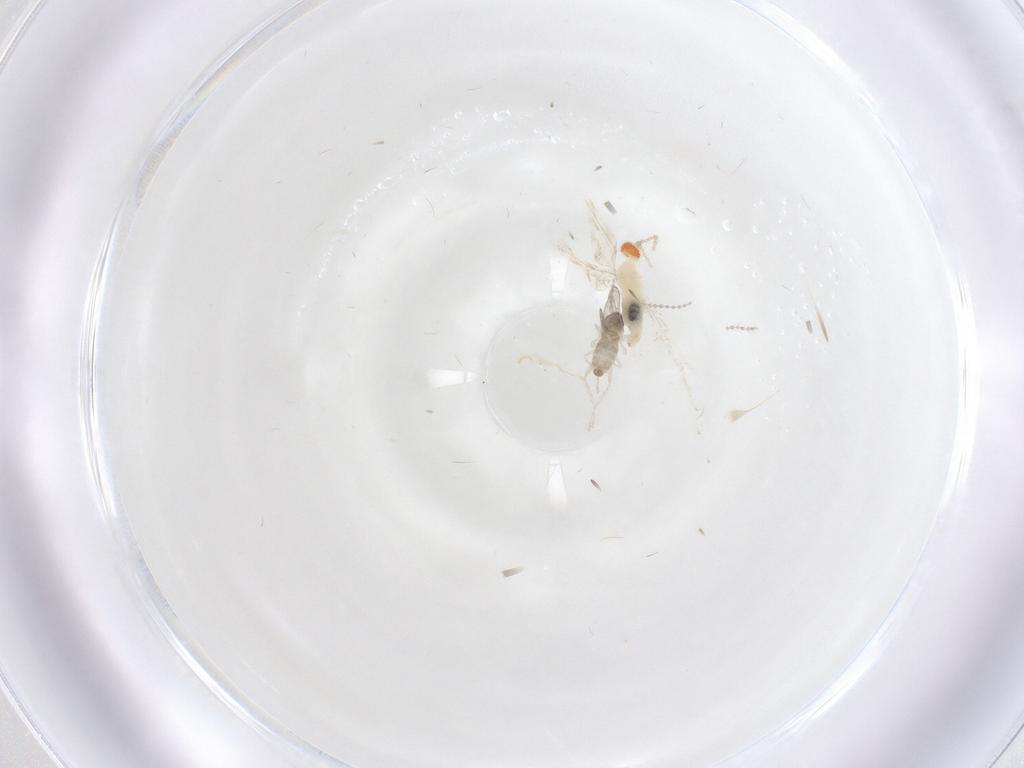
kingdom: Animalia
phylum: Arthropoda
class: Insecta
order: Diptera
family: Cecidomyiidae
